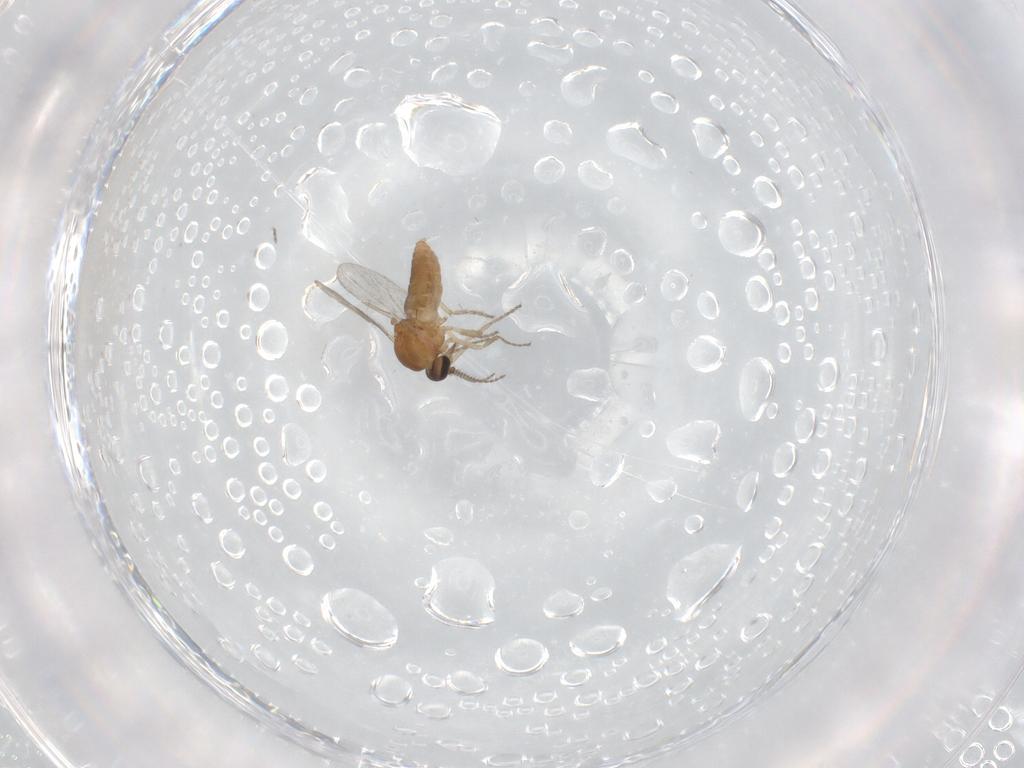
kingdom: Animalia
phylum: Arthropoda
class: Insecta
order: Diptera
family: Ceratopogonidae
